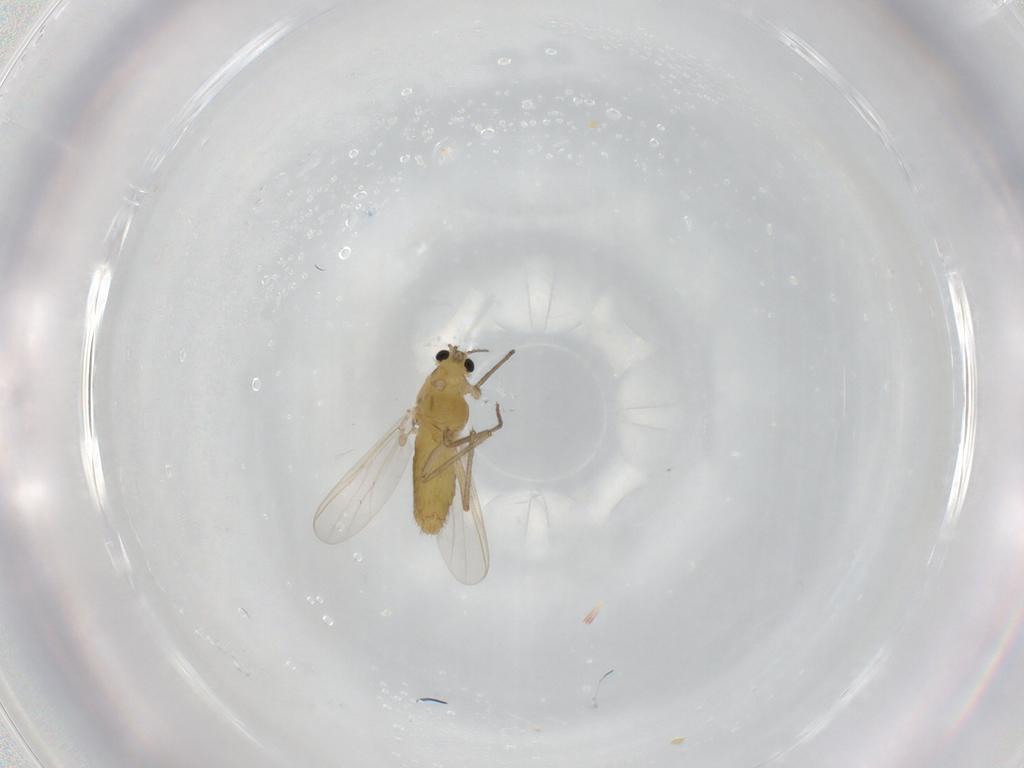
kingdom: Animalia
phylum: Arthropoda
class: Insecta
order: Diptera
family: Chironomidae
